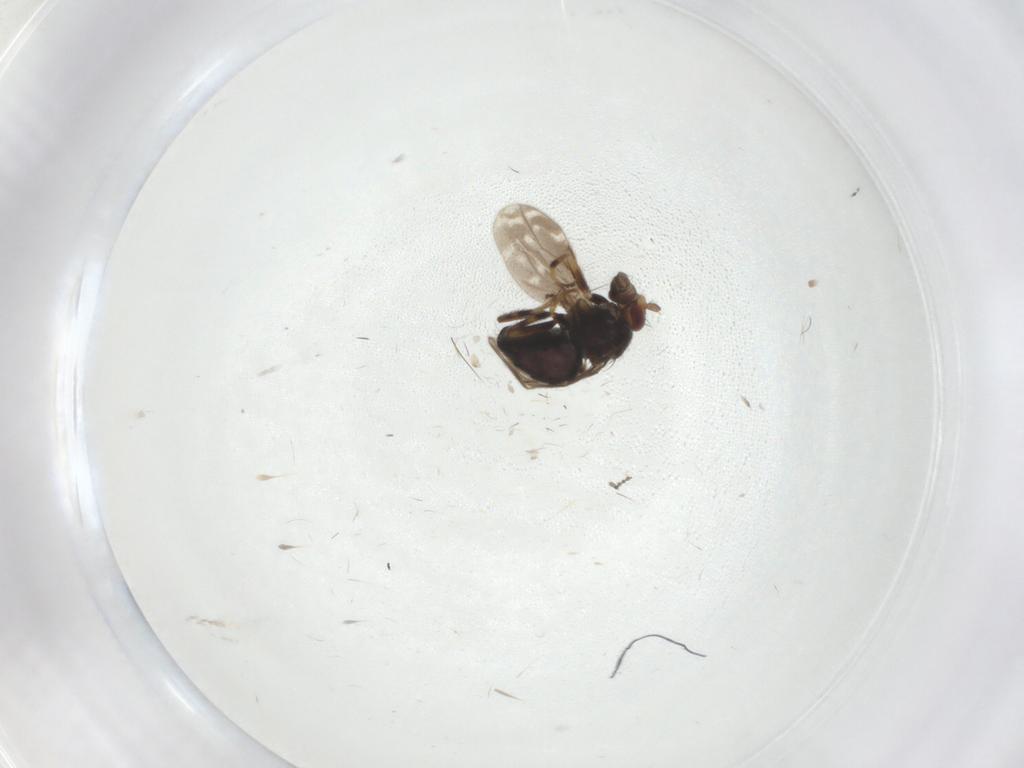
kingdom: Animalia
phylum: Arthropoda
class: Insecta
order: Diptera
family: Sphaeroceridae
